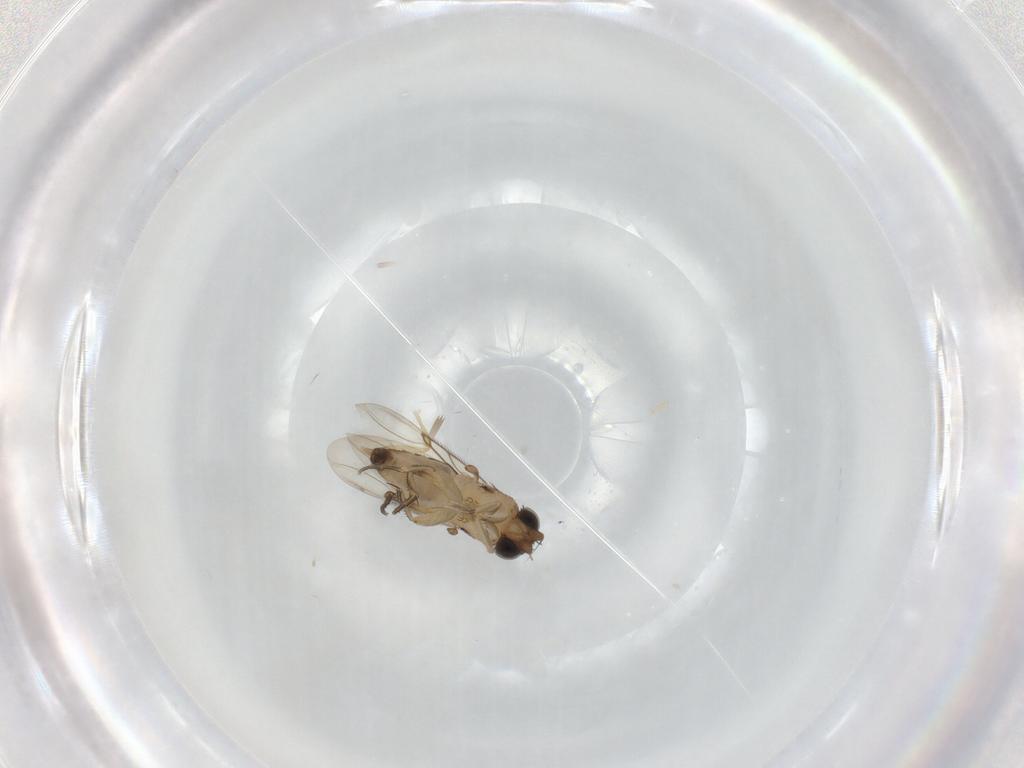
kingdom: Animalia
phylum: Arthropoda
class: Insecta
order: Diptera
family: Phoridae
